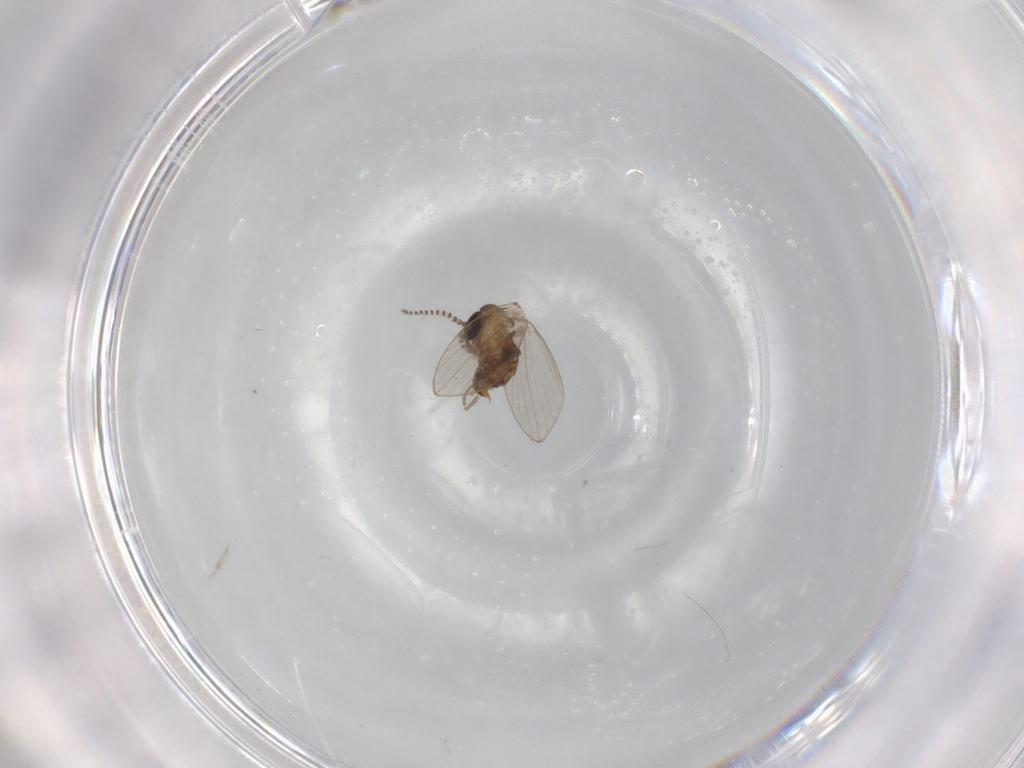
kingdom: Animalia
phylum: Arthropoda
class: Insecta
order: Diptera
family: Psychodidae
